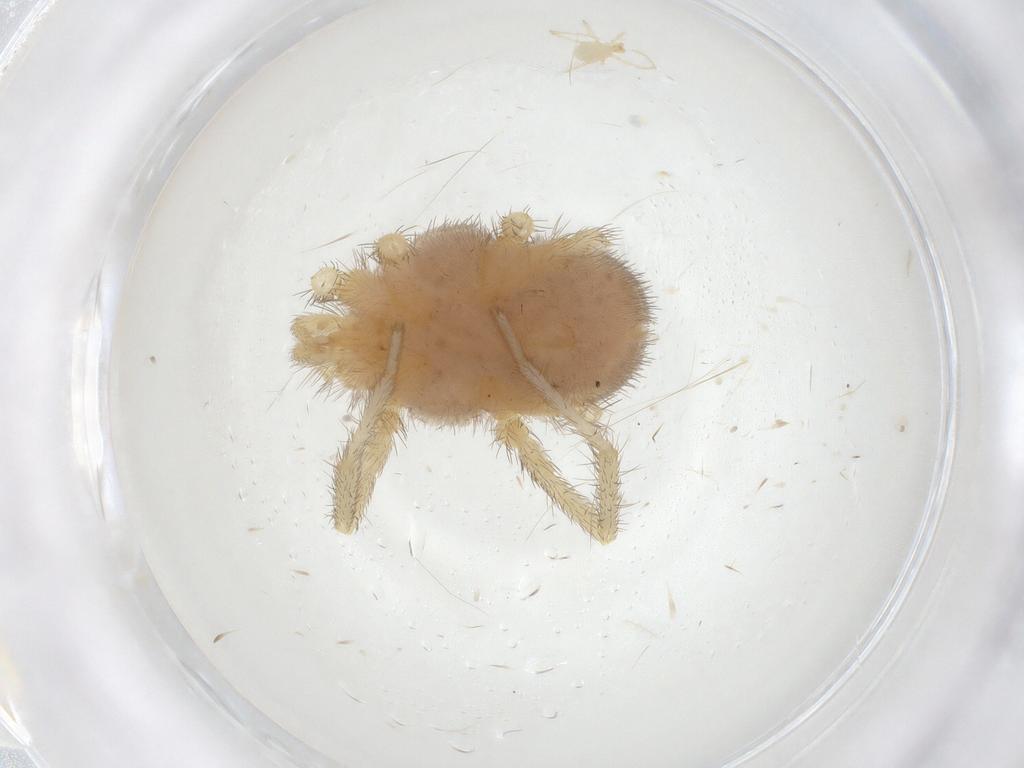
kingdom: Animalia
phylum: Arthropoda
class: Arachnida
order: Trombidiformes
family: Erythraeidae
